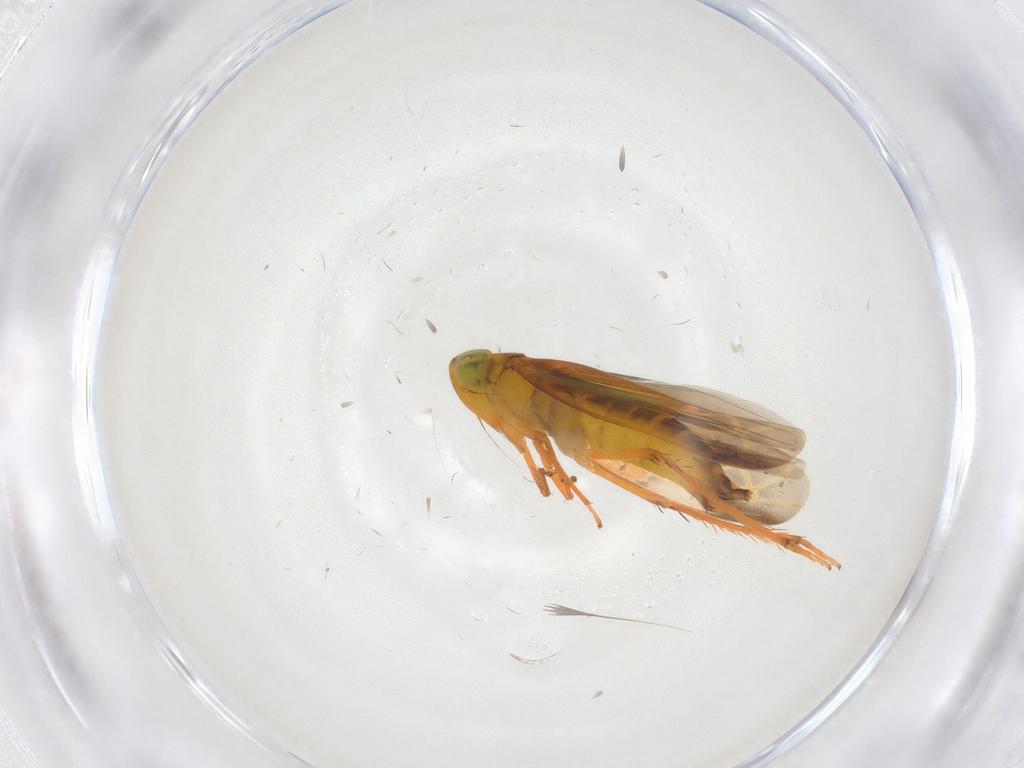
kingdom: Animalia
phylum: Arthropoda
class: Insecta
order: Hemiptera
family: Cicadellidae
